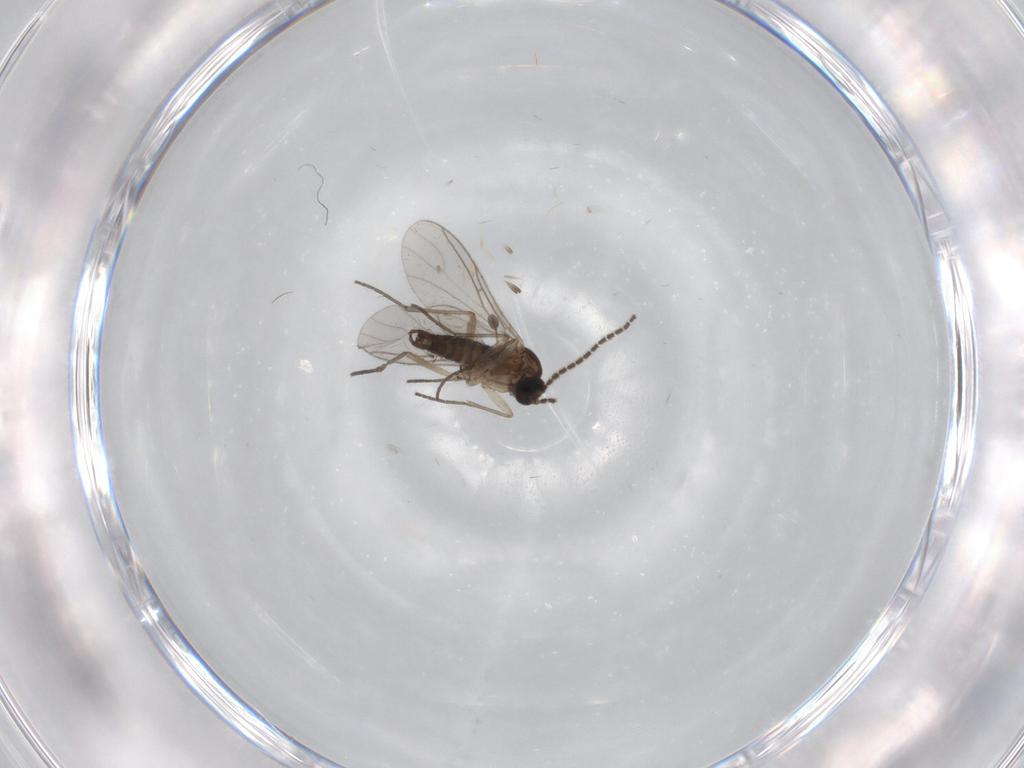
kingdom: Animalia
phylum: Arthropoda
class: Insecta
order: Diptera
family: Sciaridae
